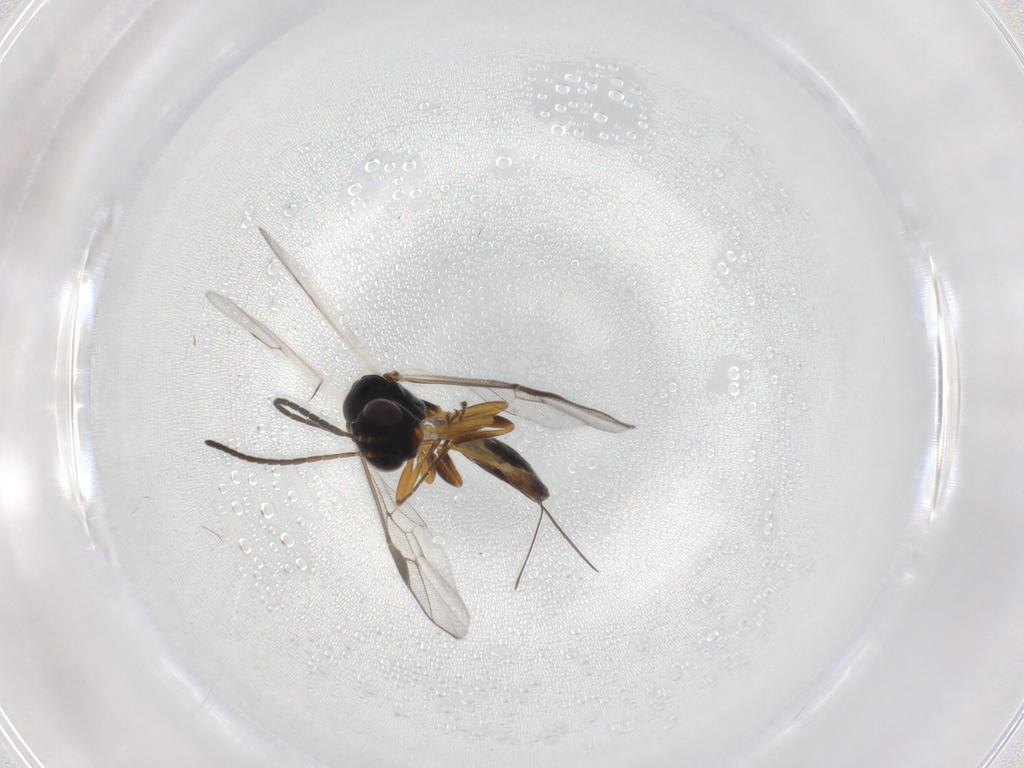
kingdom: Animalia
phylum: Arthropoda
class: Insecta
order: Hymenoptera
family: Ichneumonidae
